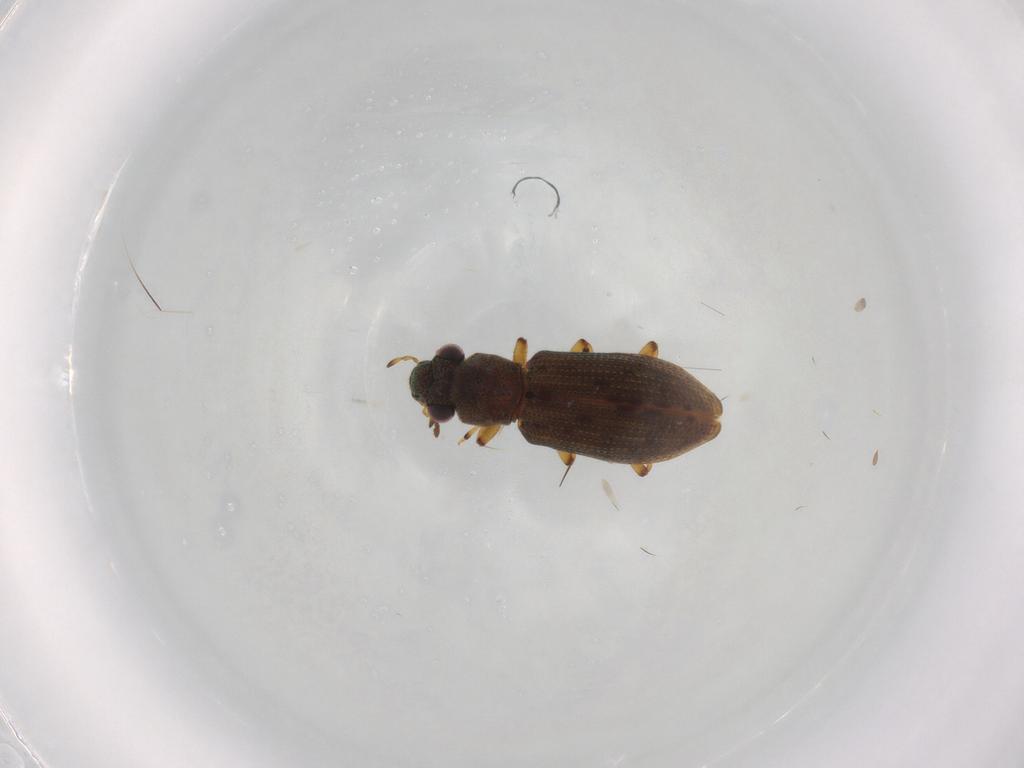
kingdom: Animalia
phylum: Arthropoda
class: Insecta
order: Coleoptera
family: Hydrophilidae
